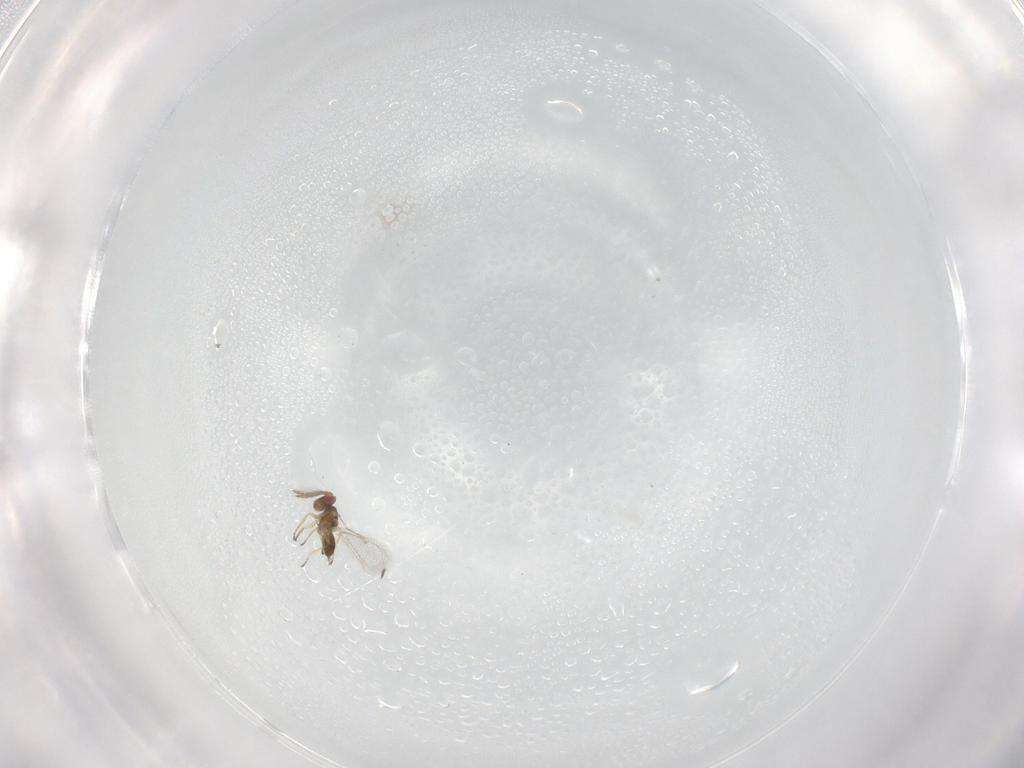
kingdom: Animalia
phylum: Arthropoda
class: Insecta
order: Hymenoptera
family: Eulophidae
